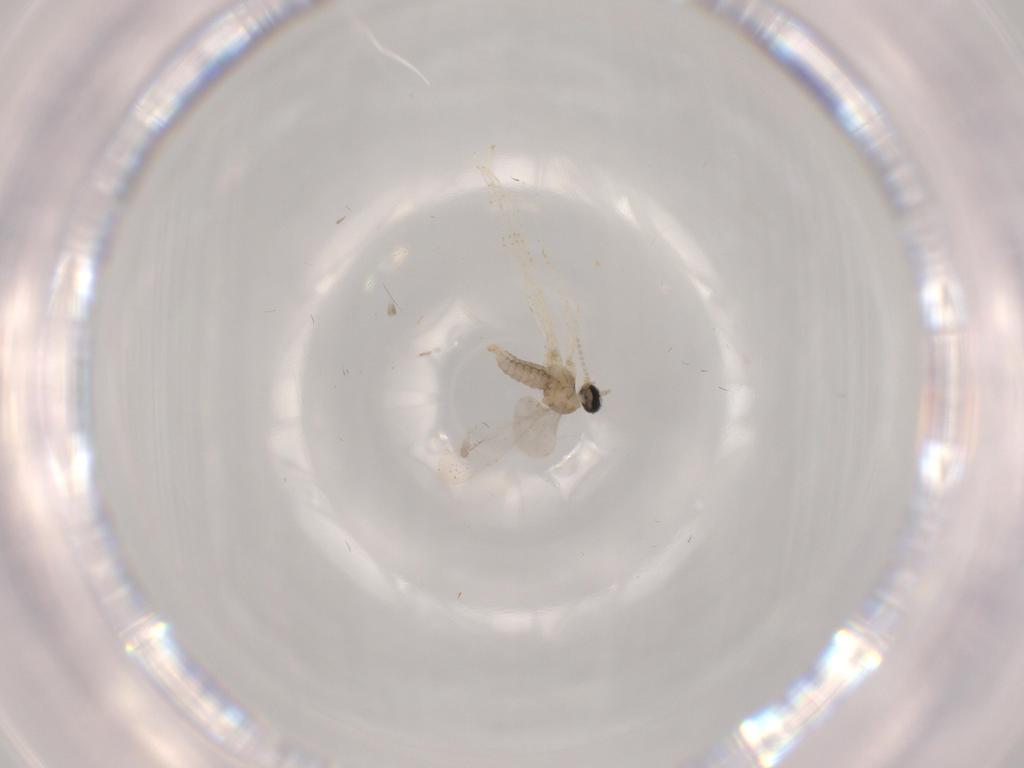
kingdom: Animalia
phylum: Arthropoda
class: Insecta
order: Diptera
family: Cecidomyiidae
